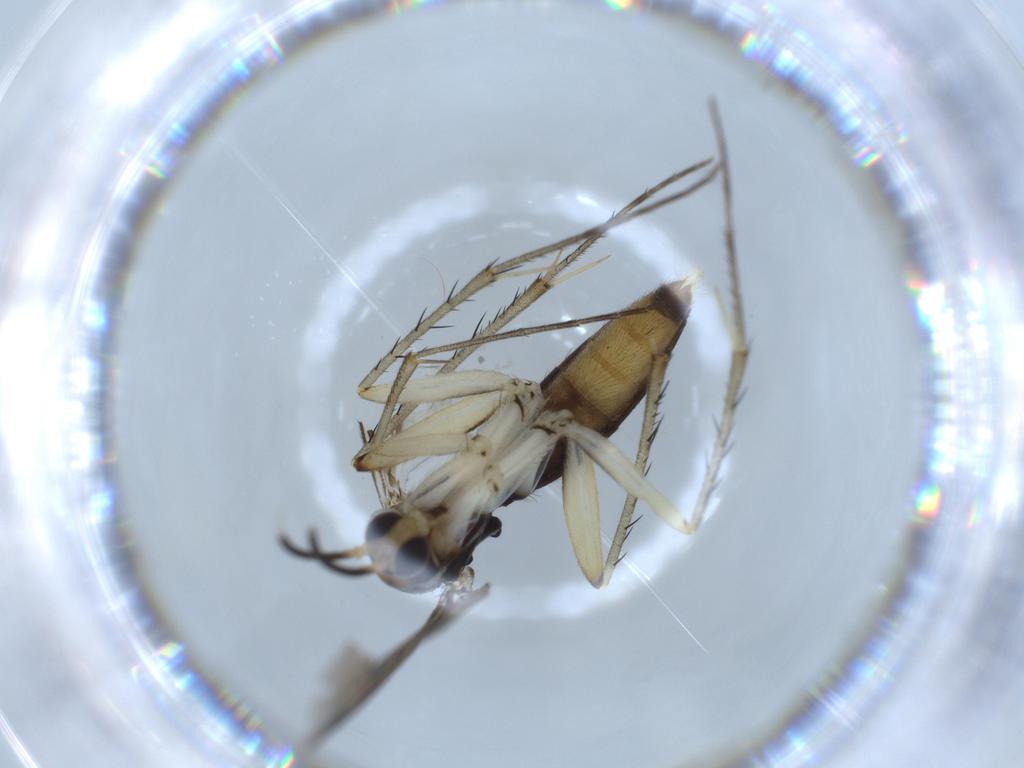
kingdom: Animalia
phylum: Arthropoda
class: Insecta
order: Diptera
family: Mycetophilidae
